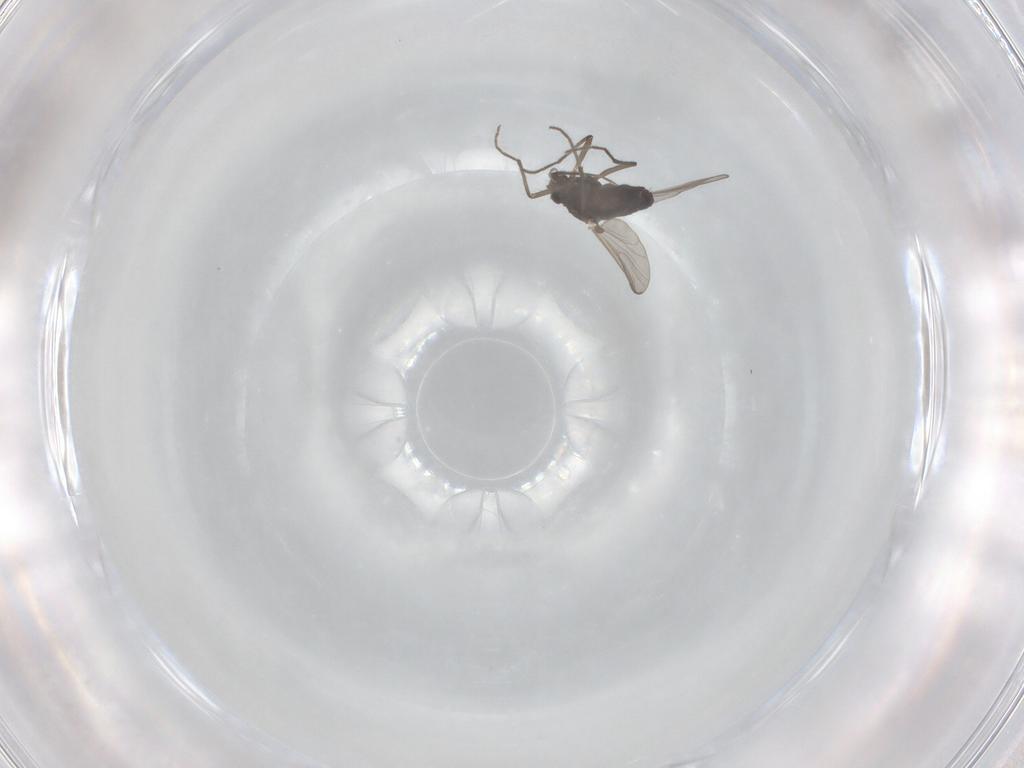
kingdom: Animalia
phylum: Arthropoda
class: Insecta
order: Diptera
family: Chironomidae
